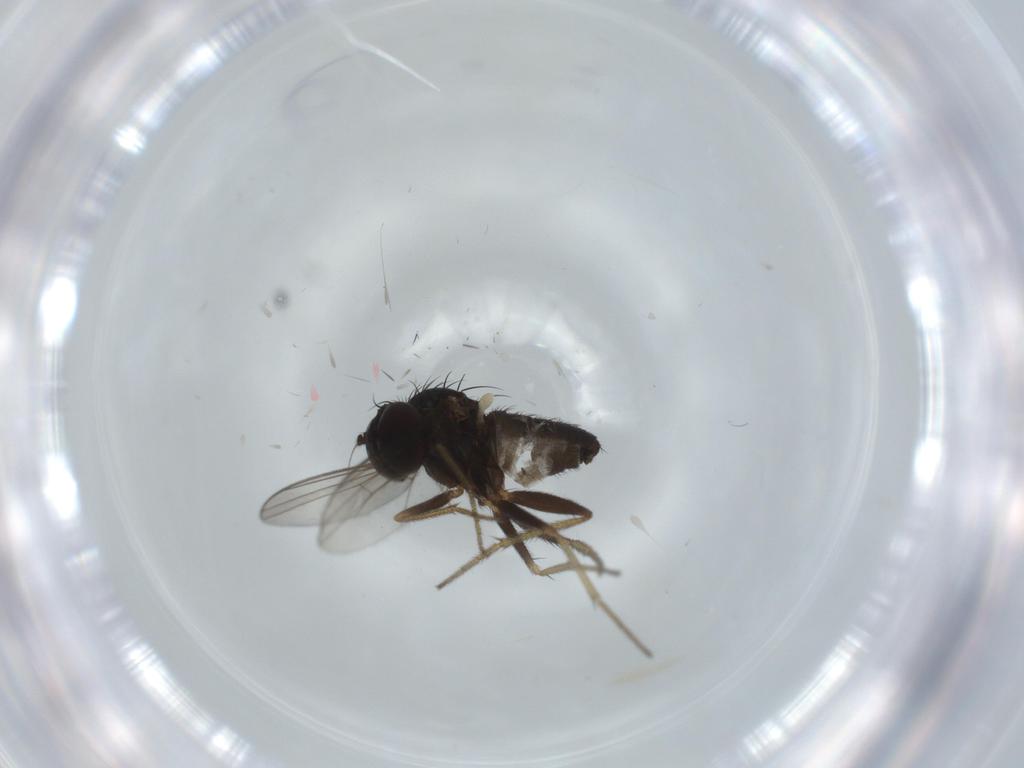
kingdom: Animalia
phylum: Arthropoda
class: Insecta
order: Diptera
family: Dolichopodidae
